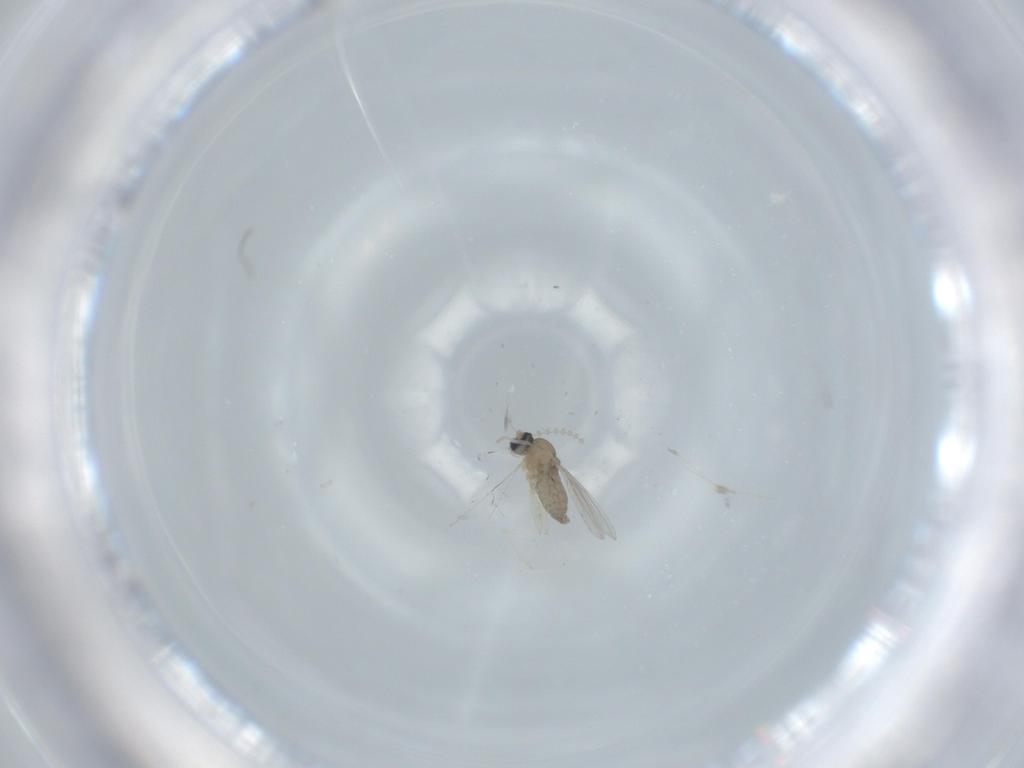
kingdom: Animalia
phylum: Arthropoda
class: Insecta
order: Diptera
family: Cecidomyiidae
